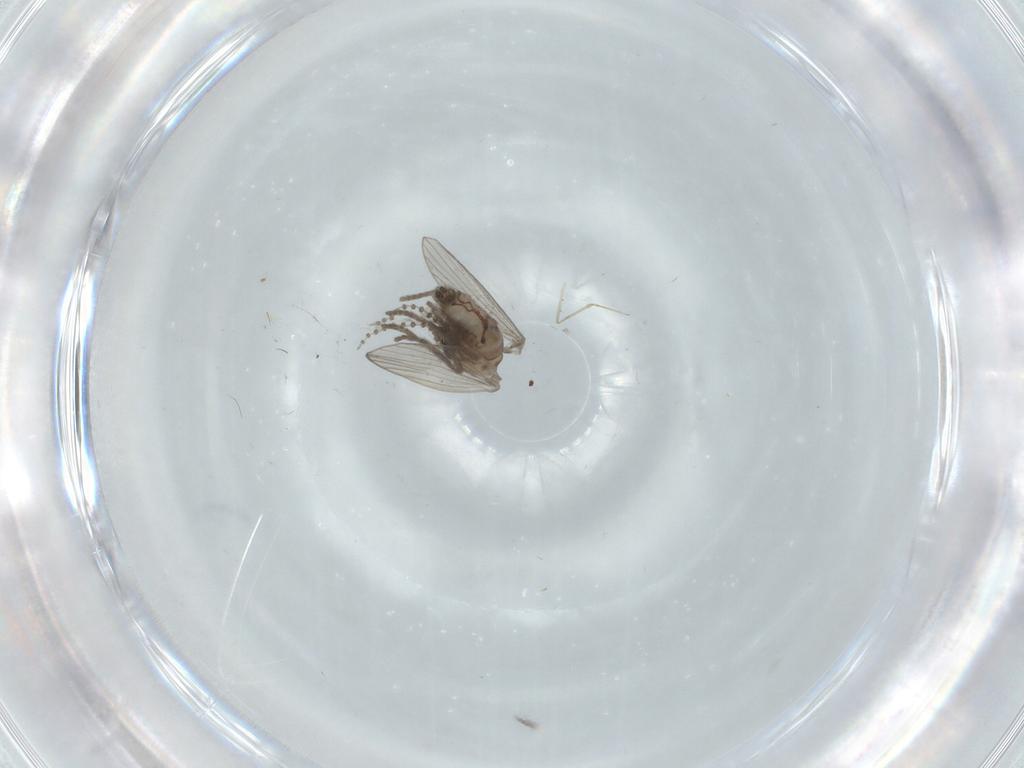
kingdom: Animalia
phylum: Arthropoda
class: Insecta
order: Diptera
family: Psychodidae
